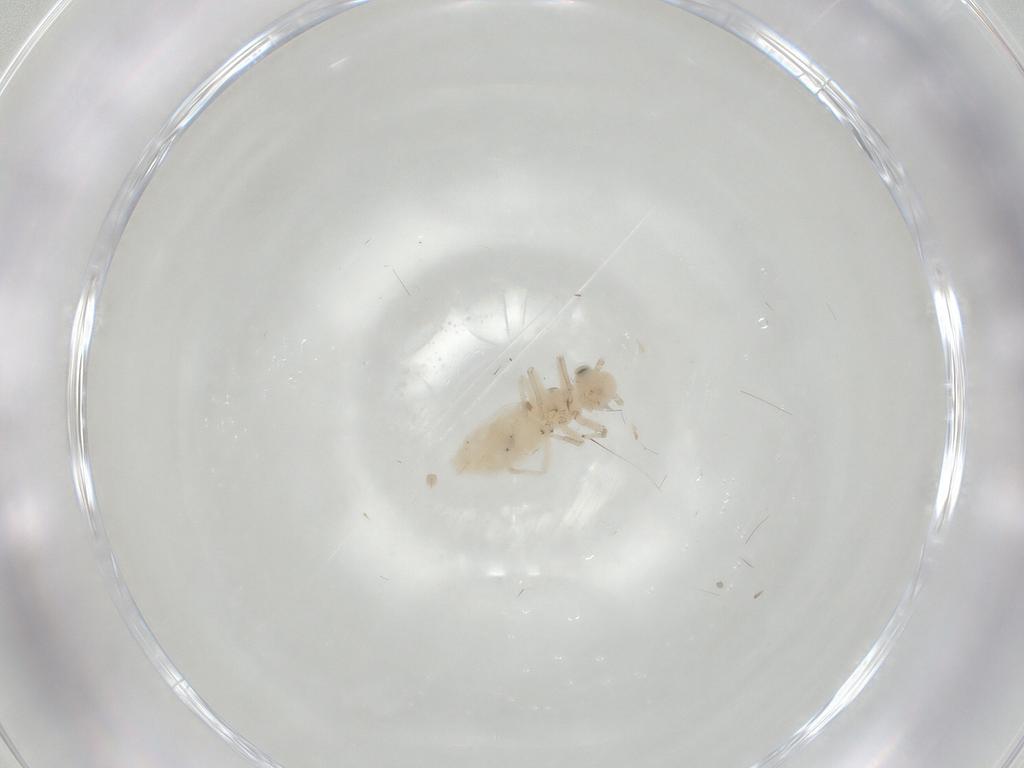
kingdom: Animalia
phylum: Arthropoda
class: Insecta
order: Psocodea
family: Caeciliusidae
